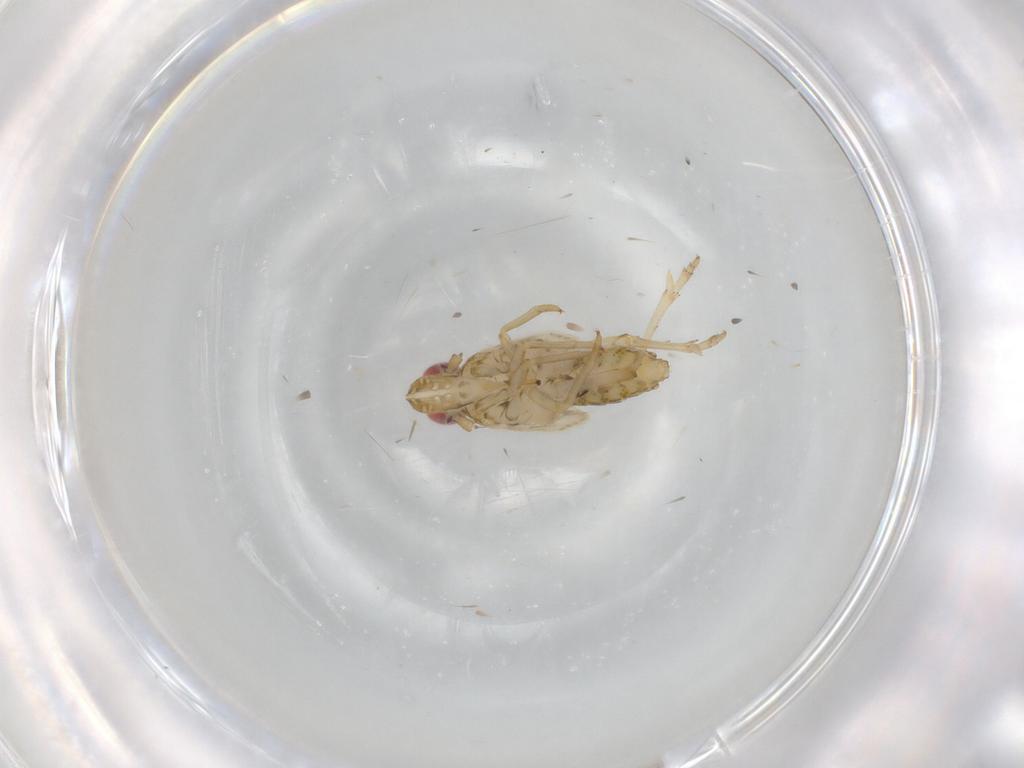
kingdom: Animalia
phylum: Arthropoda
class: Insecta
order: Hemiptera
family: Delphacidae
